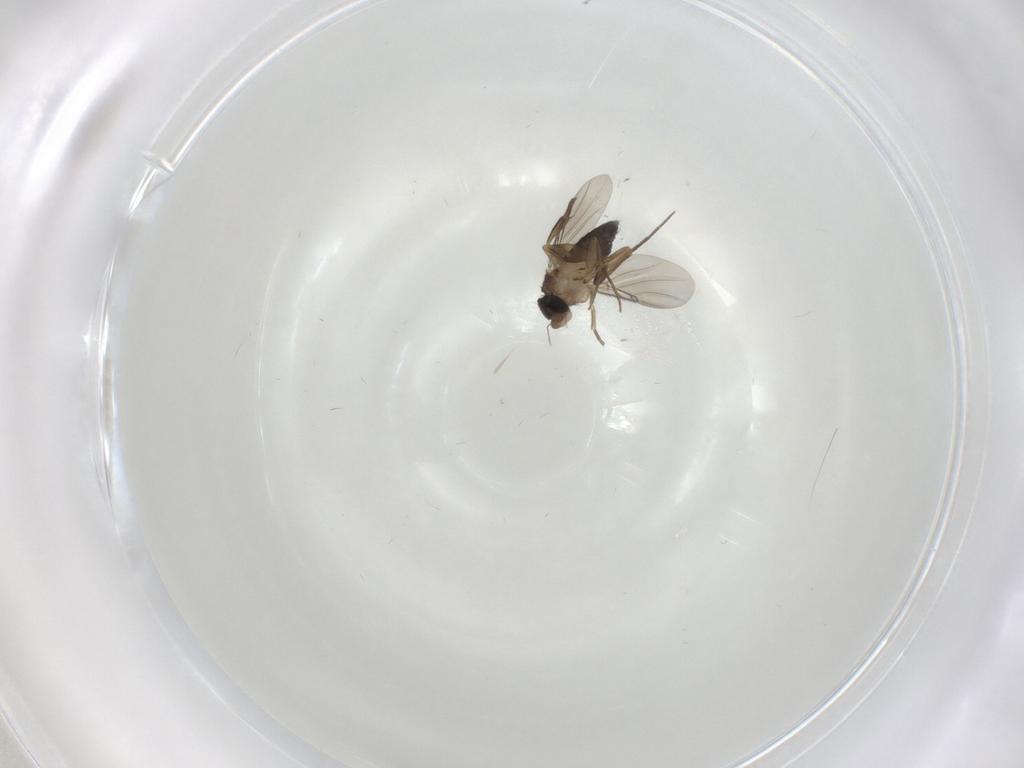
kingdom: Animalia
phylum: Arthropoda
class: Insecta
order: Diptera
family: Phoridae
